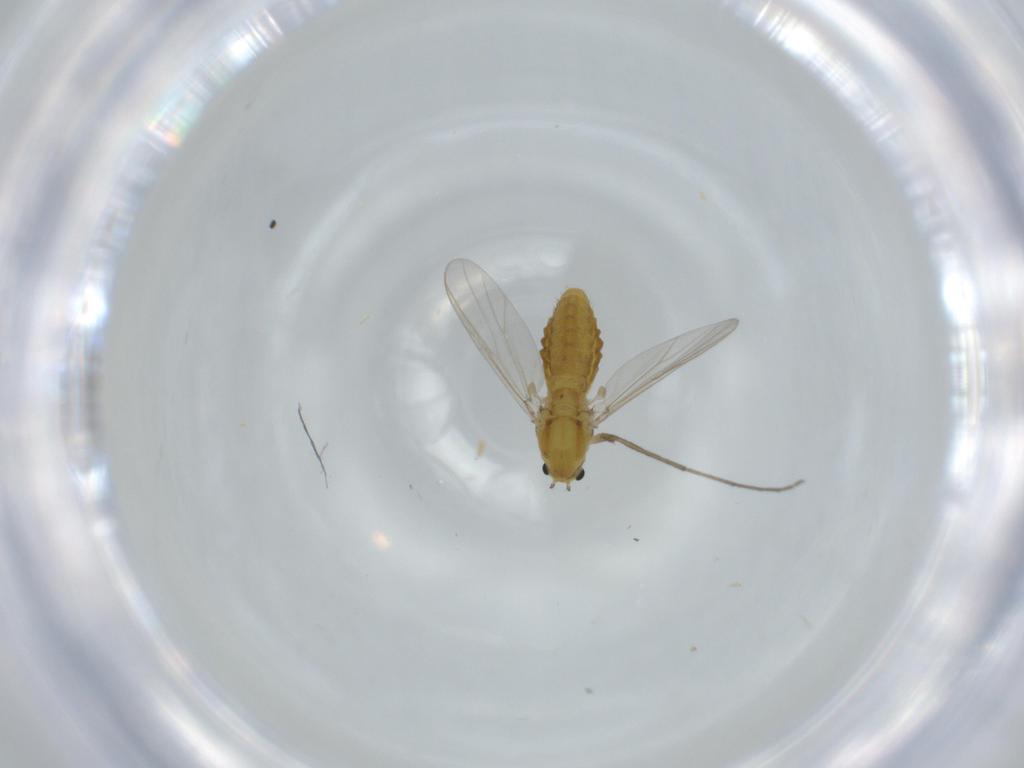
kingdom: Animalia
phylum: Arthropoda
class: Insecta
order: Diptera
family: Chironomidae
